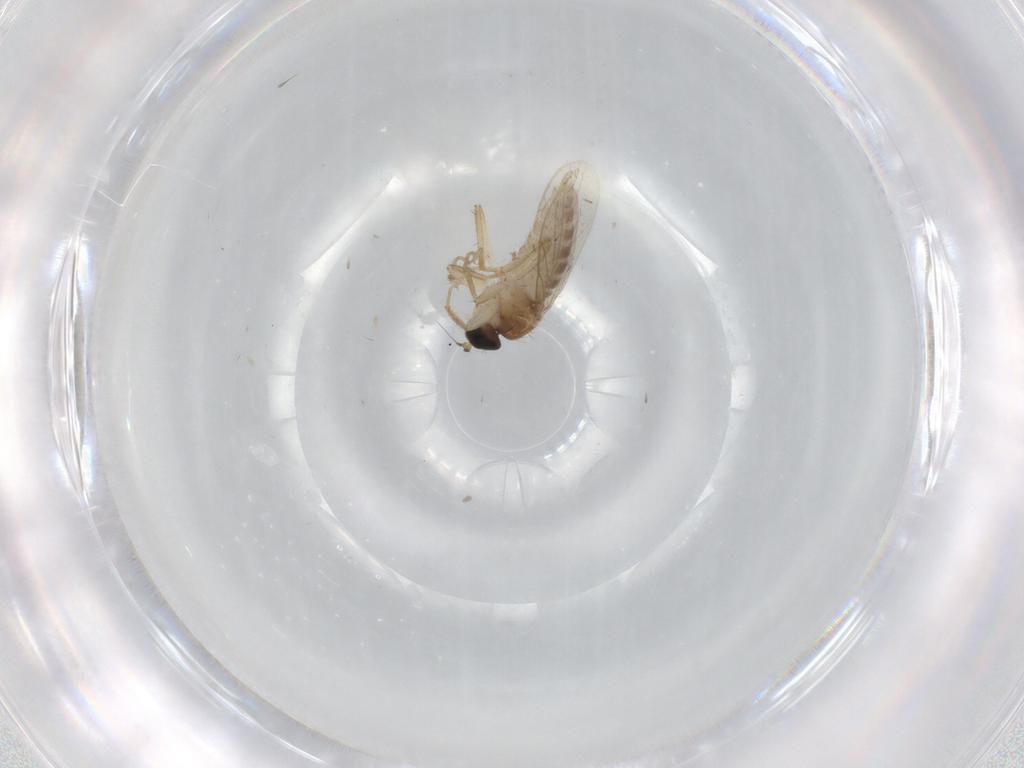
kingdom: Animalia
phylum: Arthropoda
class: Insecta
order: Diptera
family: Hybotidae
